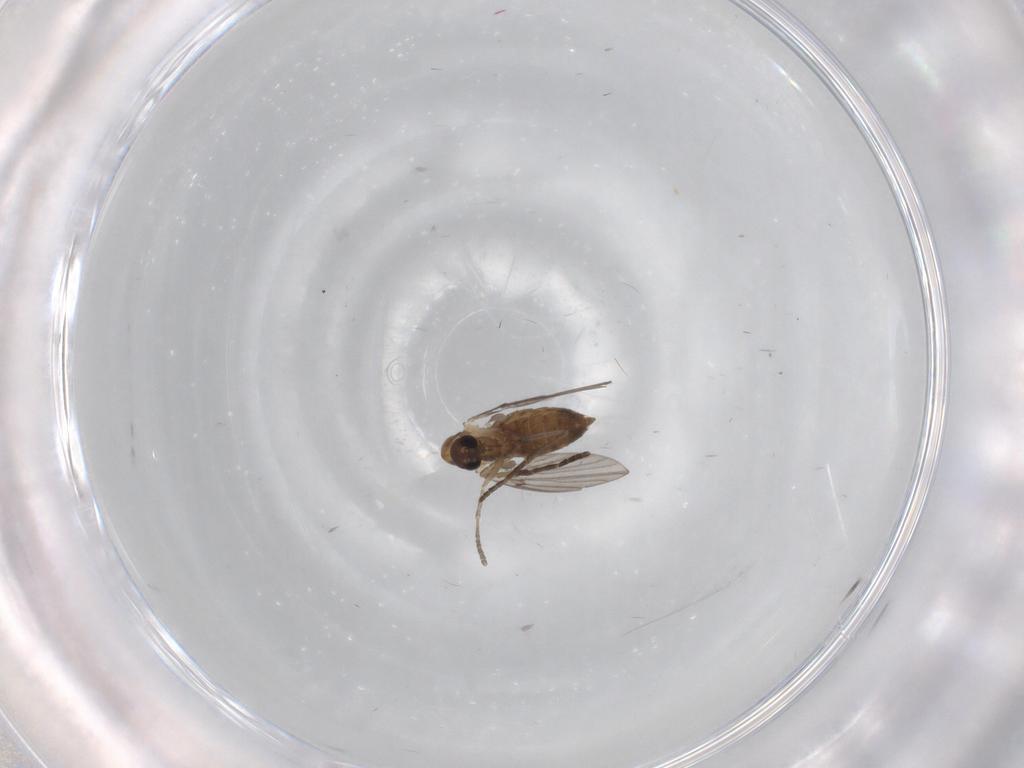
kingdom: Animalia
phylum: Arthropoda
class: Insecta
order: Diptera
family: Chloropidae
